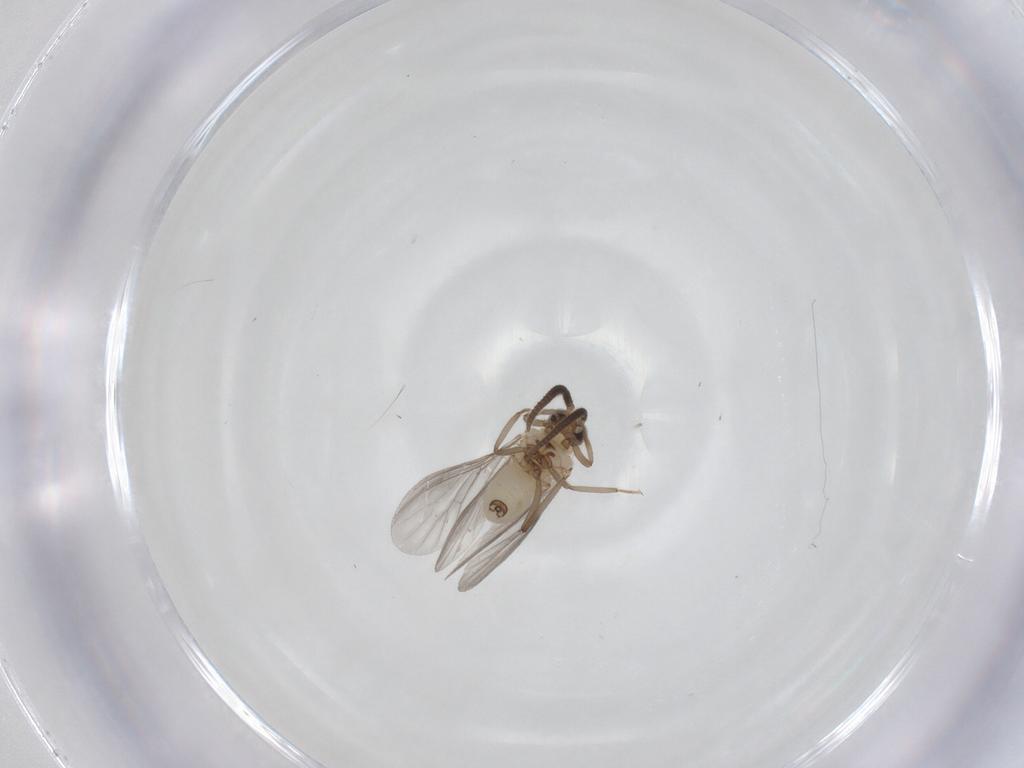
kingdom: Animalia
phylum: Arthropoda
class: Insecta
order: Neuroptera
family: Coniopterygidae
